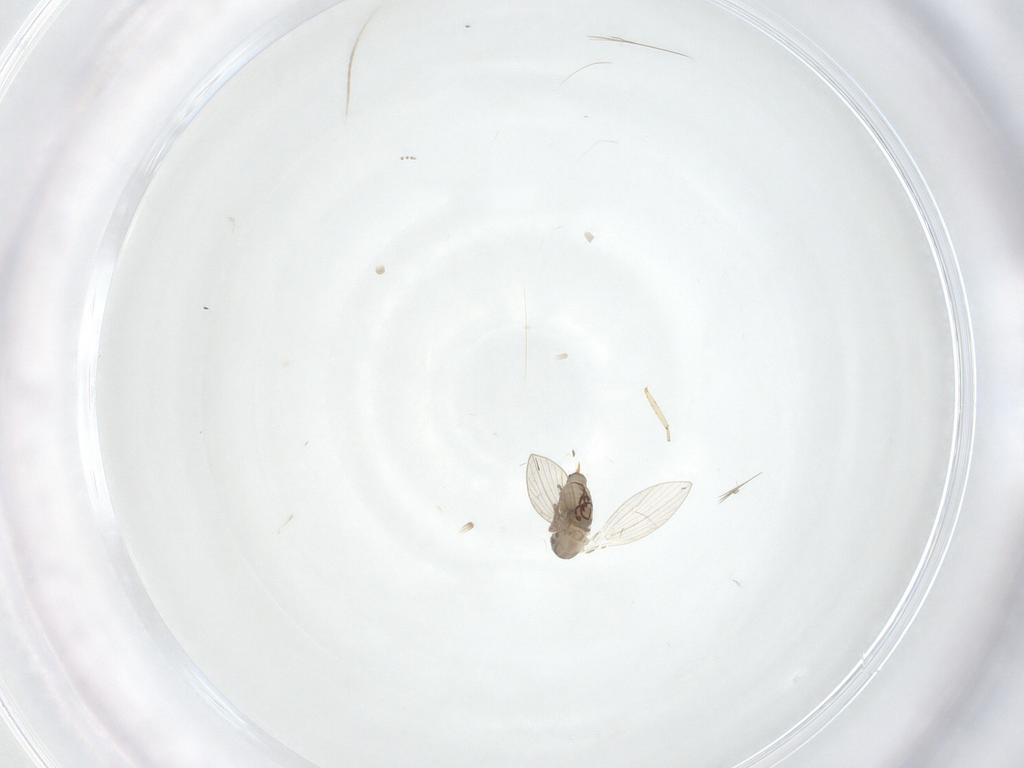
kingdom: Animalia
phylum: Arthropoda
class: Insecta
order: Diptera
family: Psychodidae
